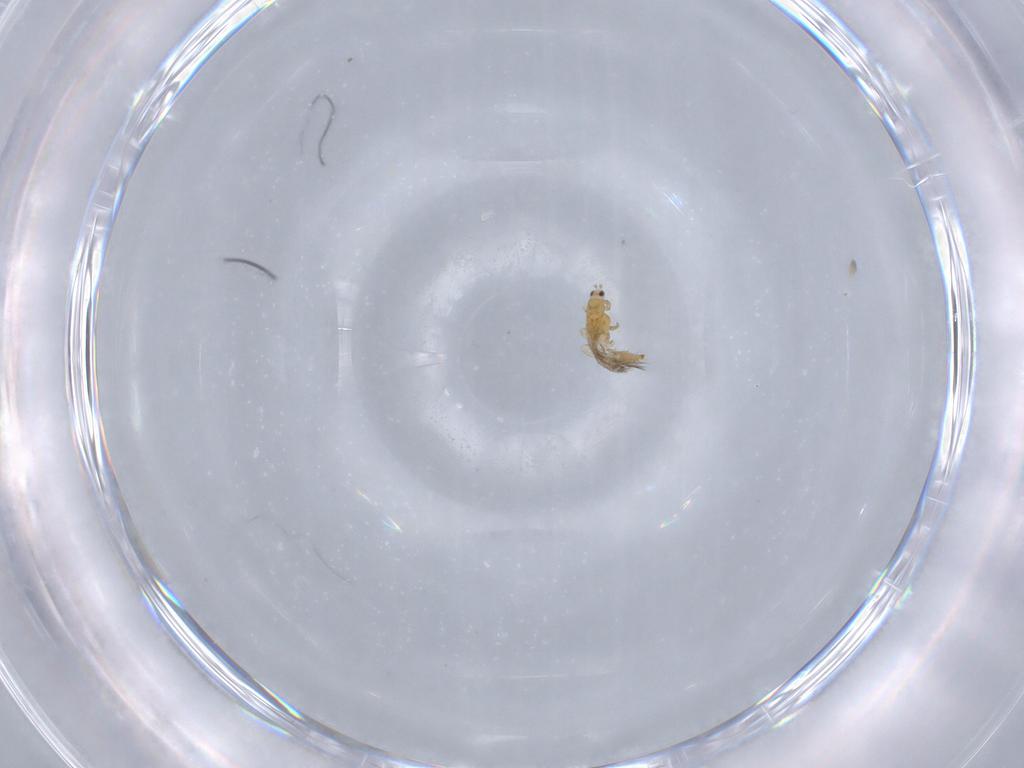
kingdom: Animalia
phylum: Arthropoda
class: Insecta
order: Thysanoptera
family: Thripidae
